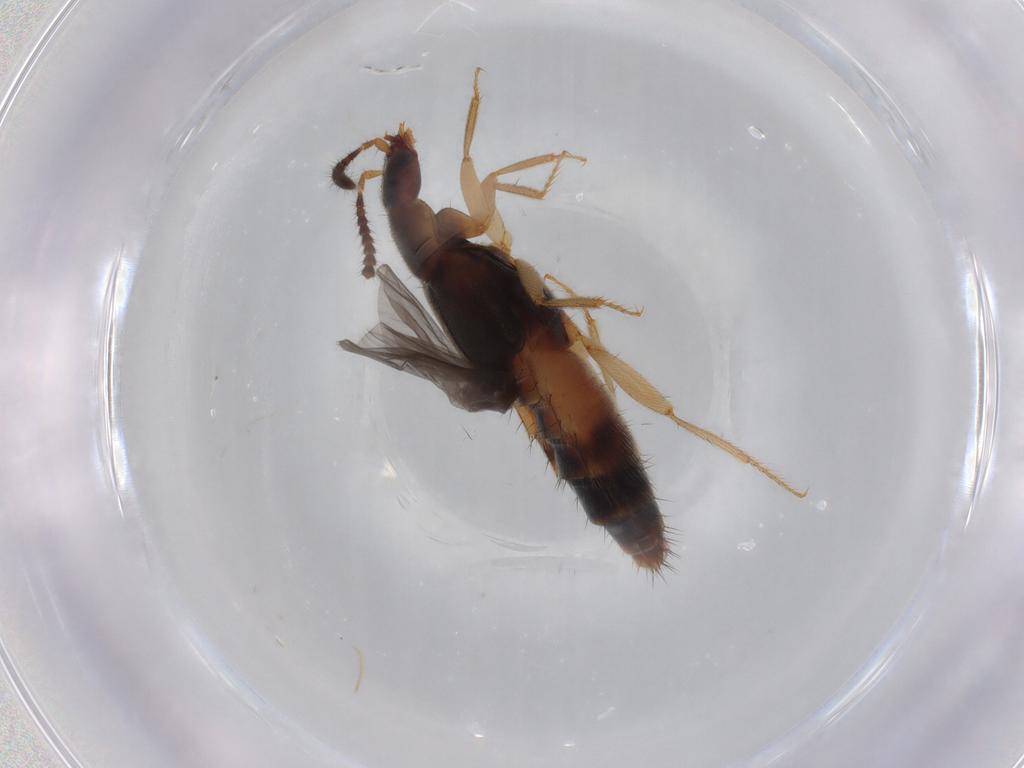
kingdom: Animalia
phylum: Arthropoda
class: Insecta
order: Coleoptera
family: Chrysomelidae
